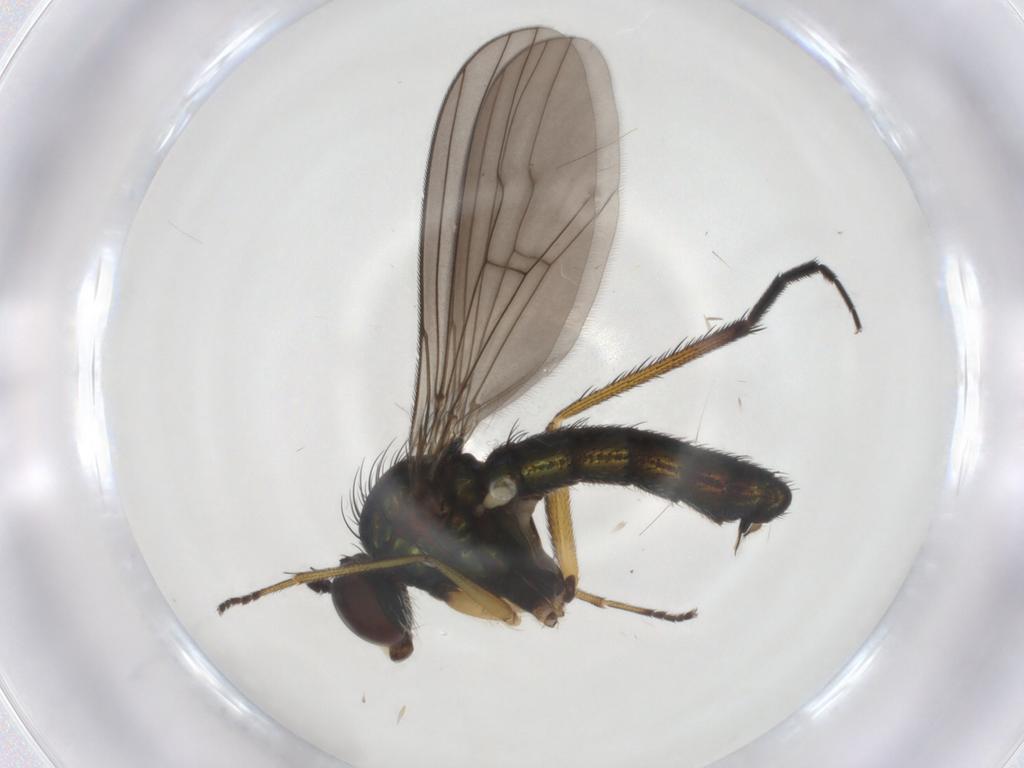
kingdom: Animalia
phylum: Arthropoda
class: Insecta
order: Diptera
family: Dolichopodidae
